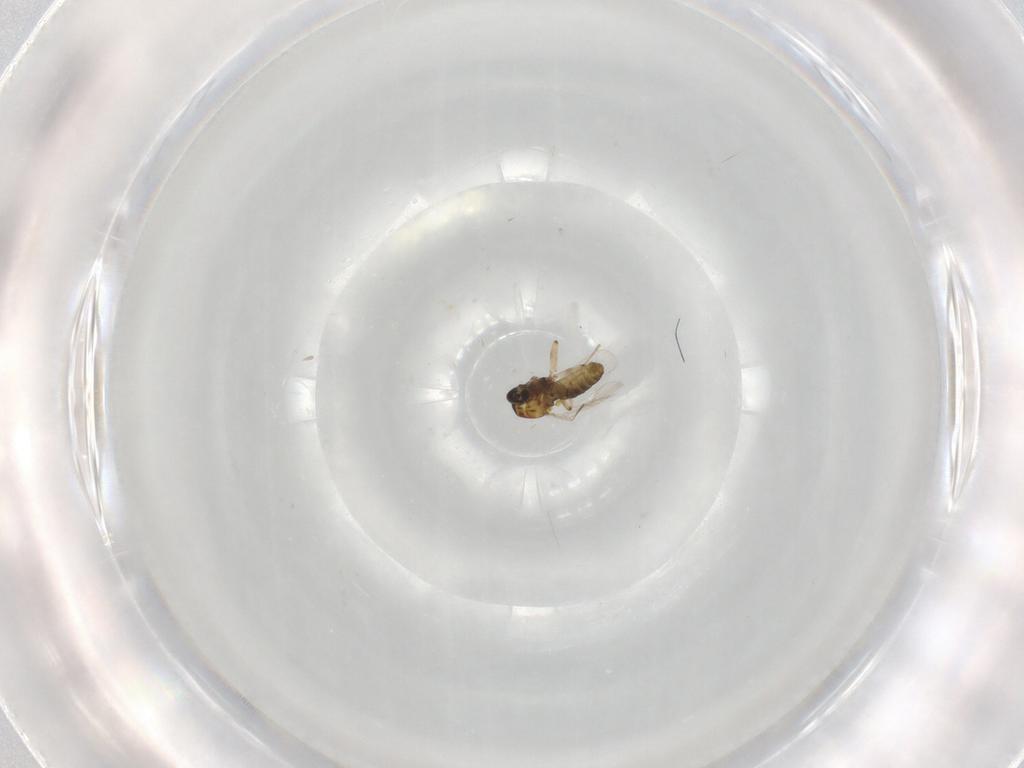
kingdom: Animalia
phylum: Arthropoda
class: Insecta
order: Diptera
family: Ceratopogonidae
